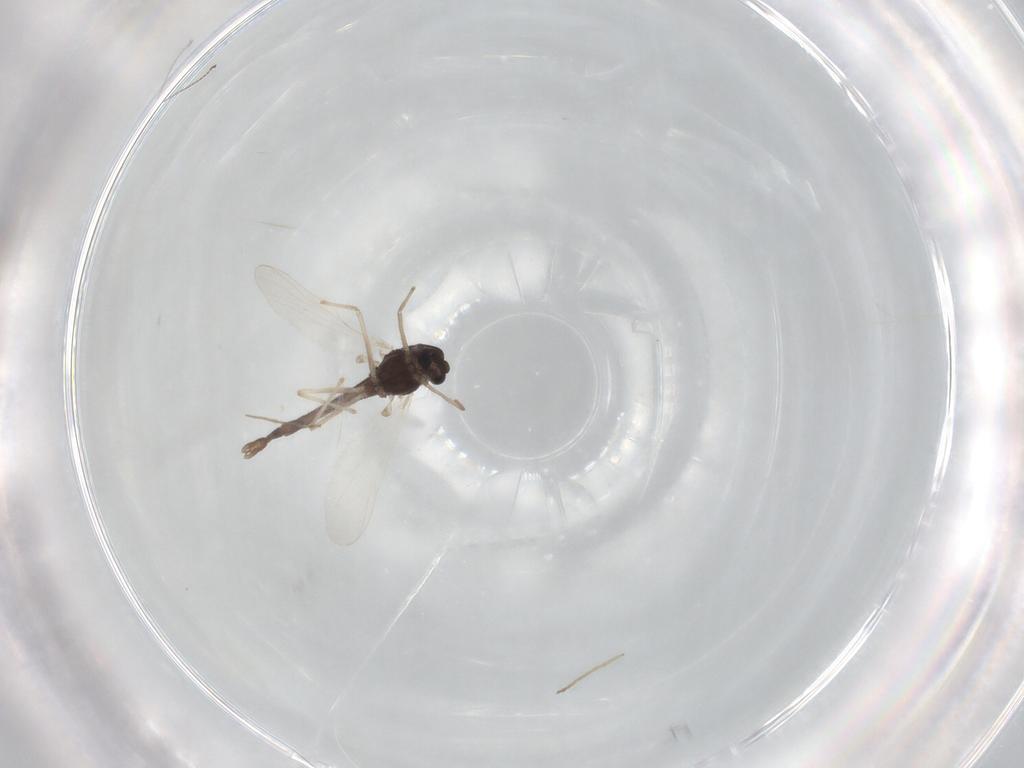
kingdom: Animalia
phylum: Arthropoda
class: Insecta
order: Diptera
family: Chironomidae
